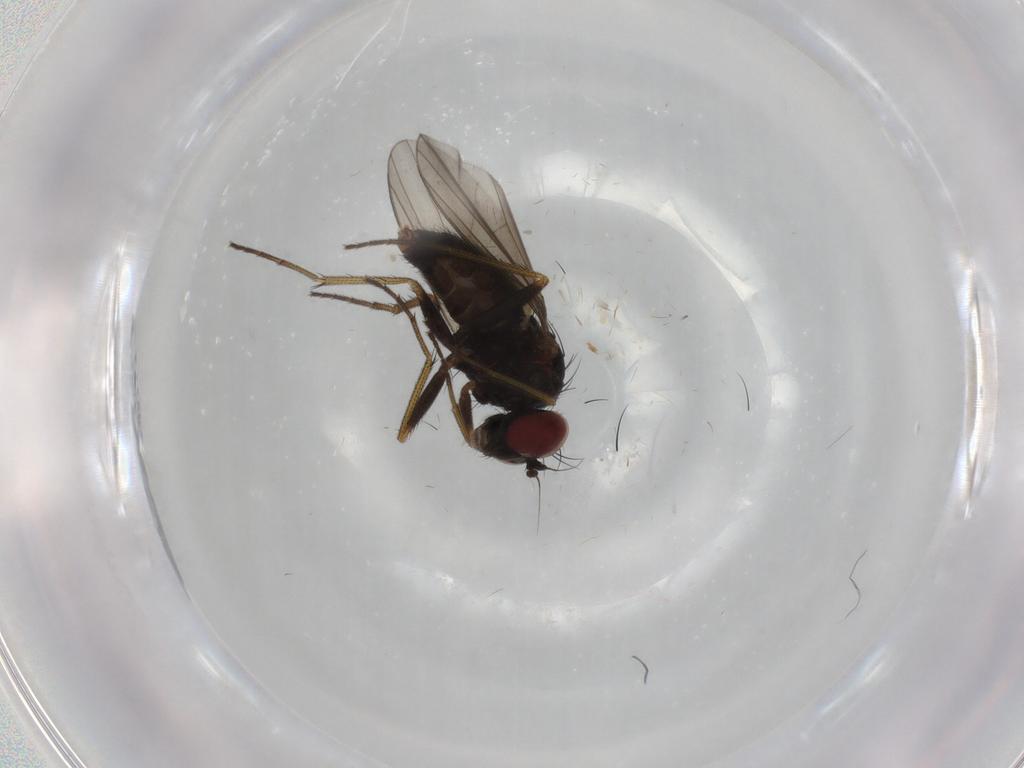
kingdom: Animalia
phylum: Arthropoda
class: Insecta
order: Diptera
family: Dolichopodidae
